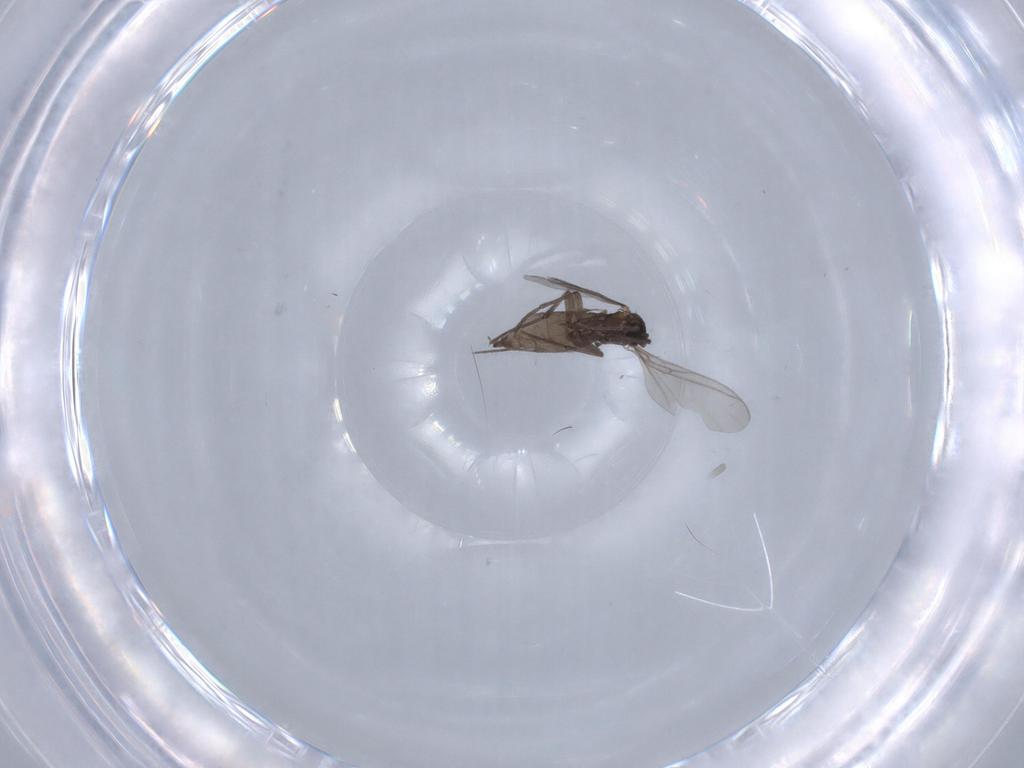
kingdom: Animalia
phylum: Arthropoda
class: Insecta
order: Diptera
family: Sciaridae
